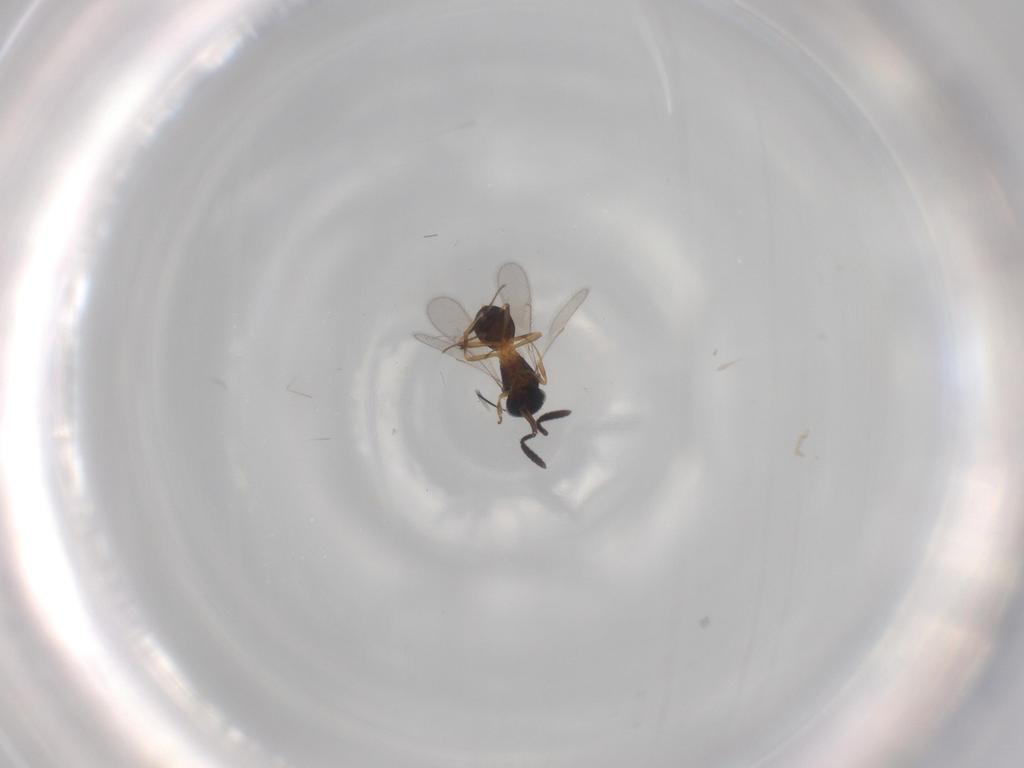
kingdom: Animalia
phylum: Arthropoda
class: Insecta
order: Hymenoptera
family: Scelionidae
